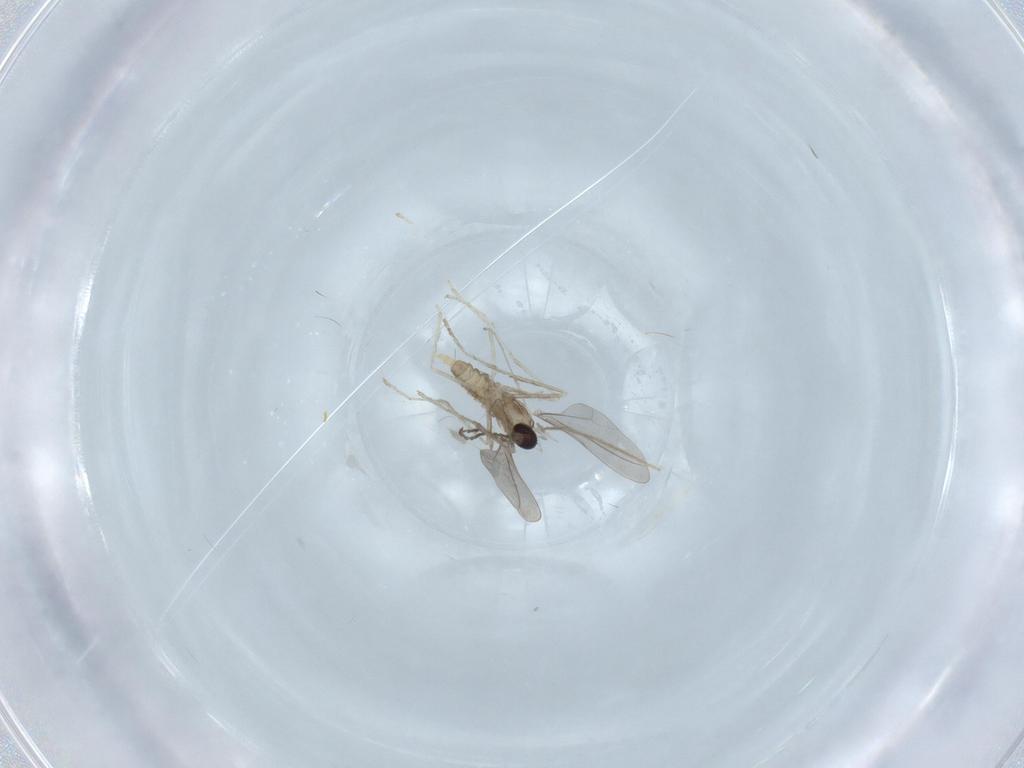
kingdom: Animalia
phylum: Arthropoda
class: Insecta
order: Diptera
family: Cecidomyiidae
